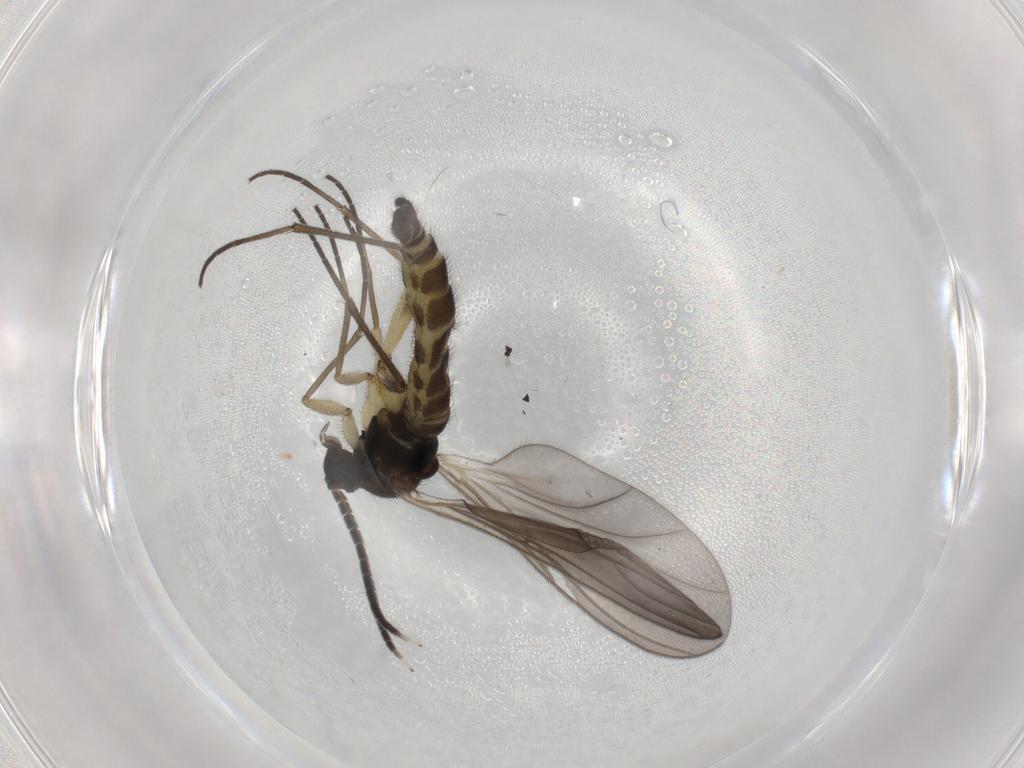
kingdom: Animalia
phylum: Arthropoda
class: Insecta
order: Diptera
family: Sciaridae
